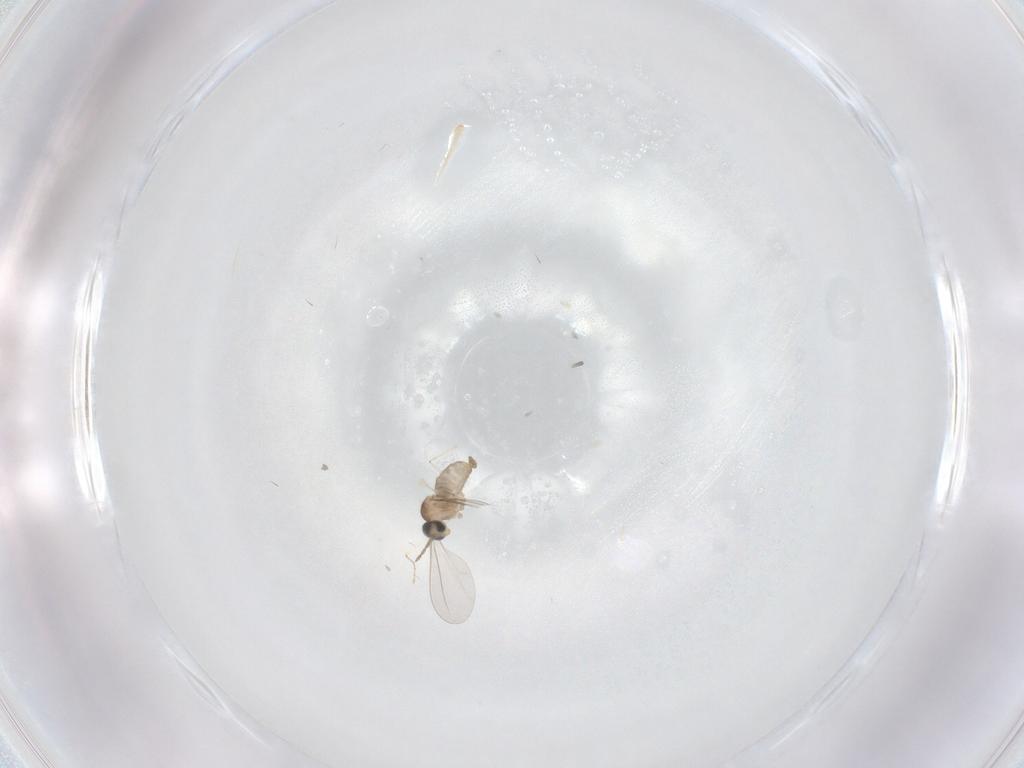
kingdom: Animalia
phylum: Arthropoda
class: Insecta
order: Diptera
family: Cecidomyiidae
